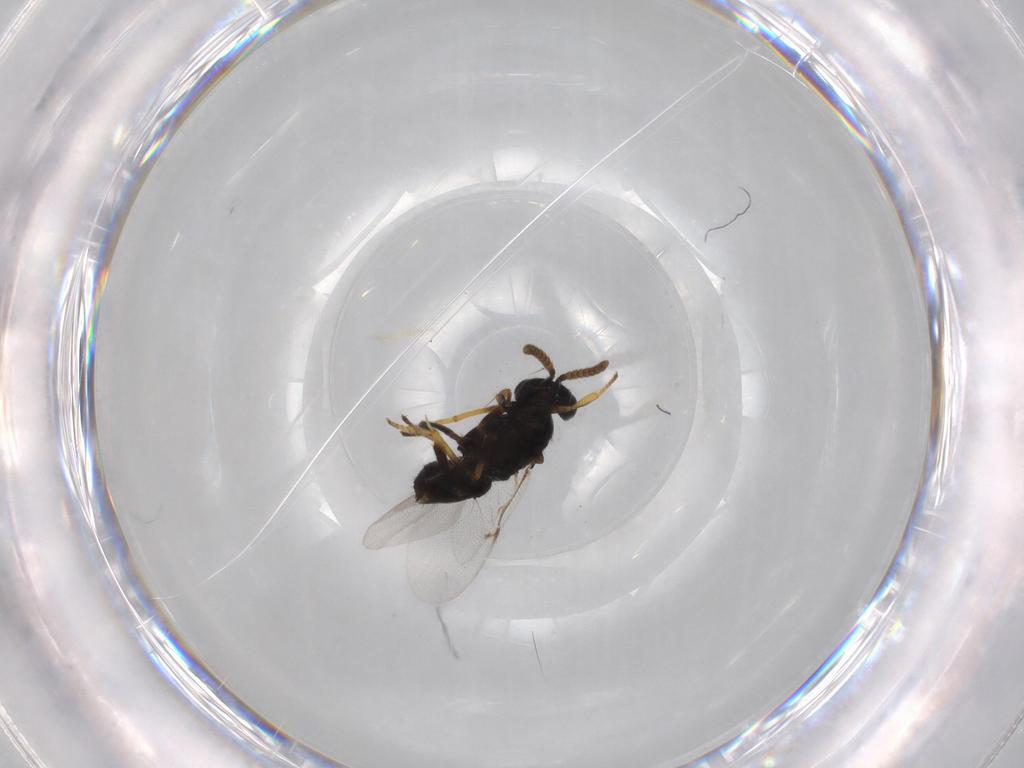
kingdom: Animalia
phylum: Arthropoda
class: Insecta
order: Hymenoptera
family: Encyrtidae
